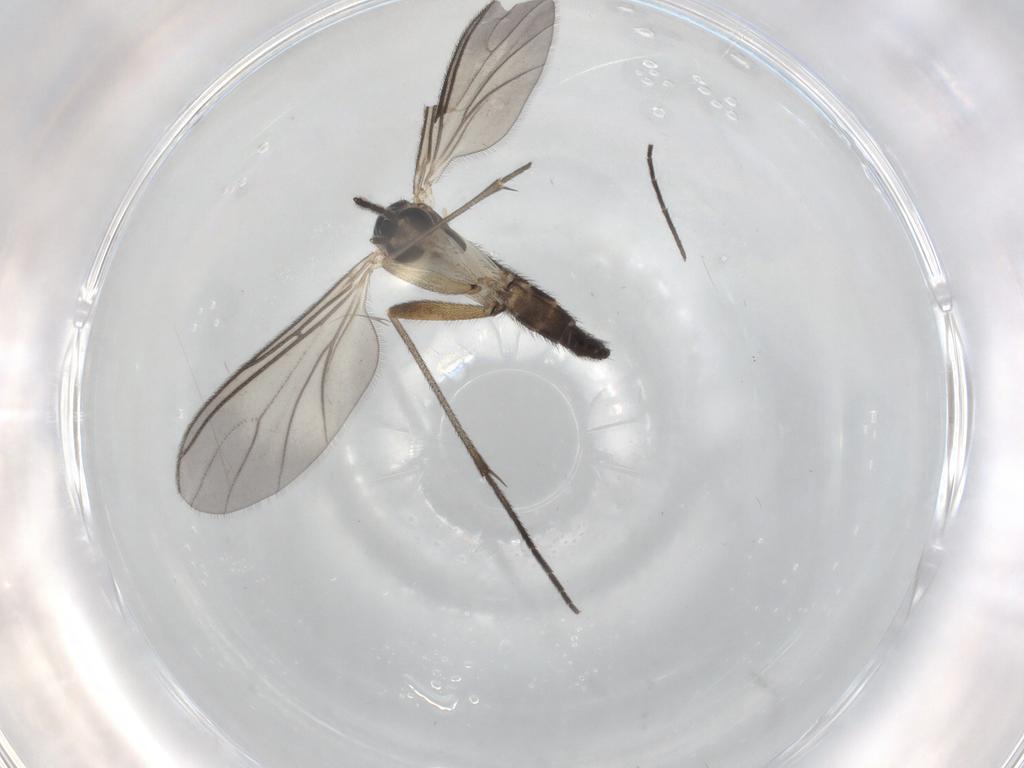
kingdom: Animalia
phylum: Arthropoda
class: Insecta
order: Diptera
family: Sciaridae
